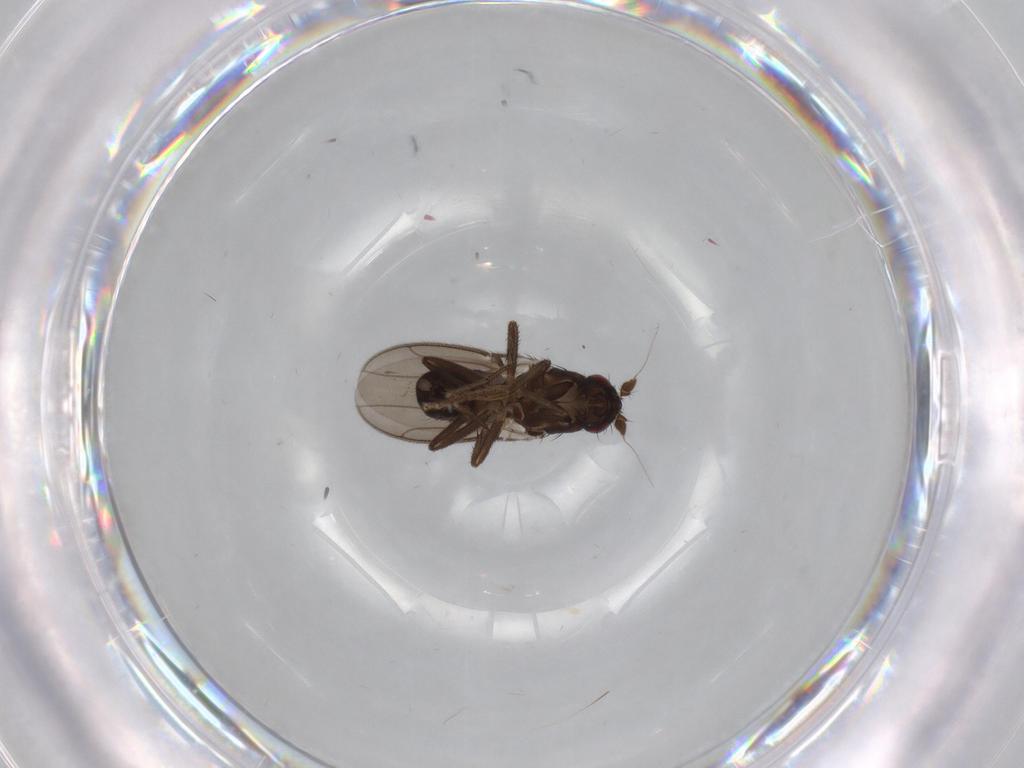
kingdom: Animalia
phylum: Arthropoda
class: Insecta
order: Diptera
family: Sphaeroceridae
